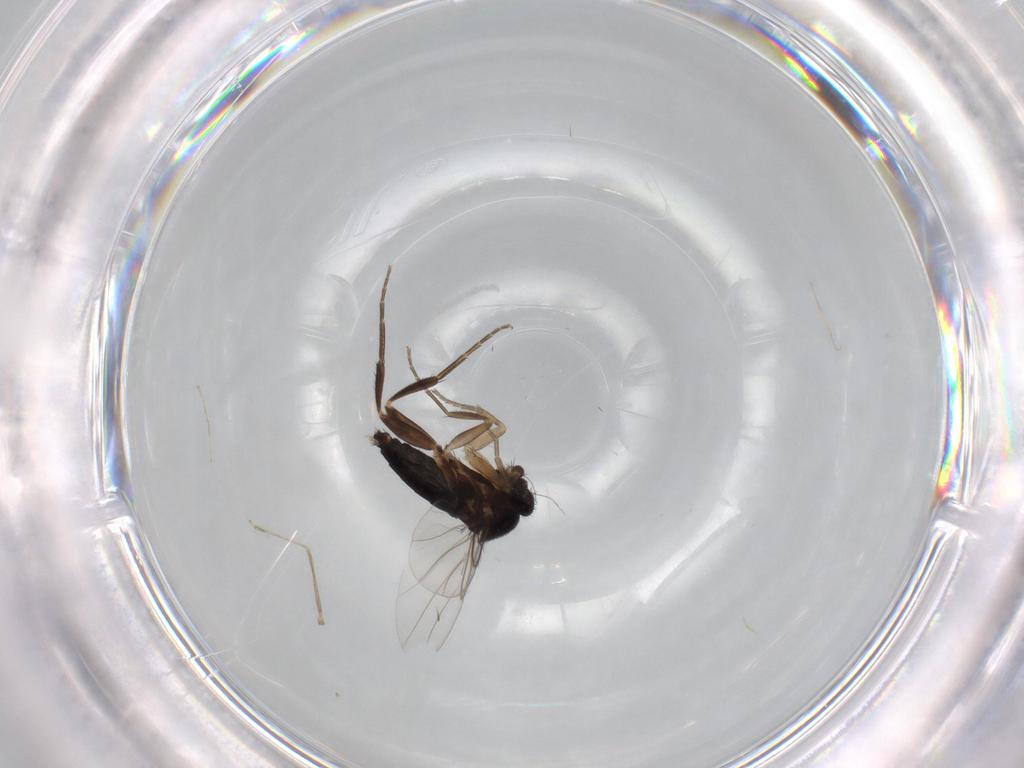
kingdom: Animalia
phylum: Arthropoda
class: Insecta
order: Diptera
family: Phoridae
